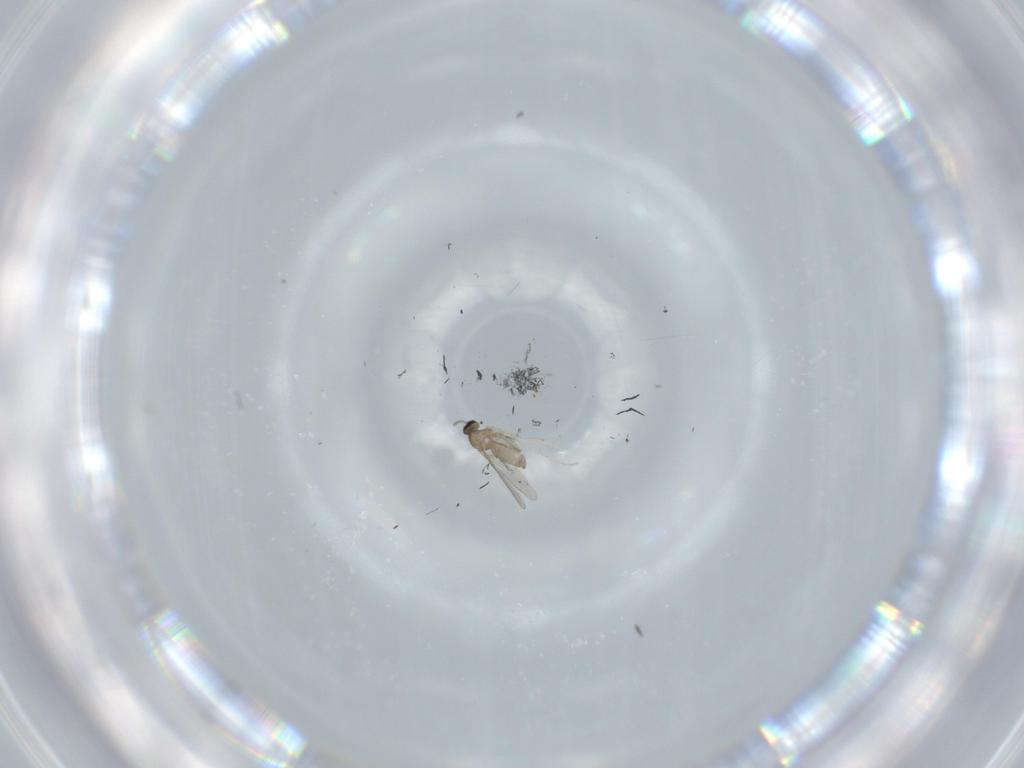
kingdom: Animalia
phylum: Arthropoda
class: Insecta
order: Diptera
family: Cecidomyiidae
